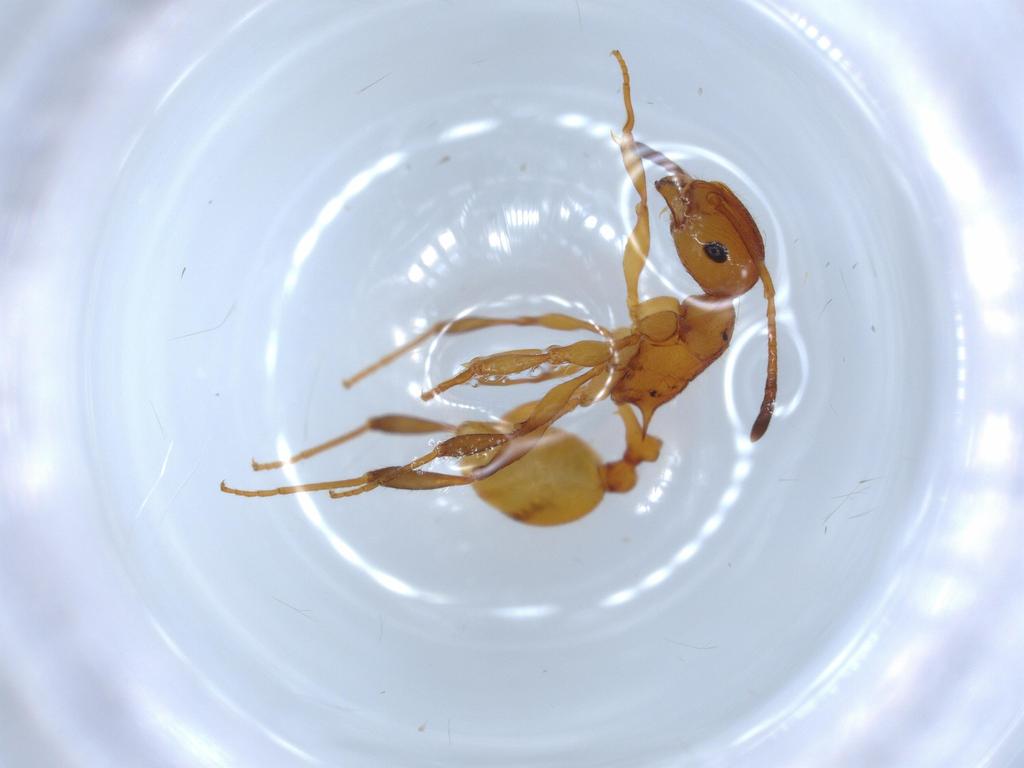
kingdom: Animalia
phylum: Arthropoda
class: Insecta
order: Hymenoptera
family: Formicidae
